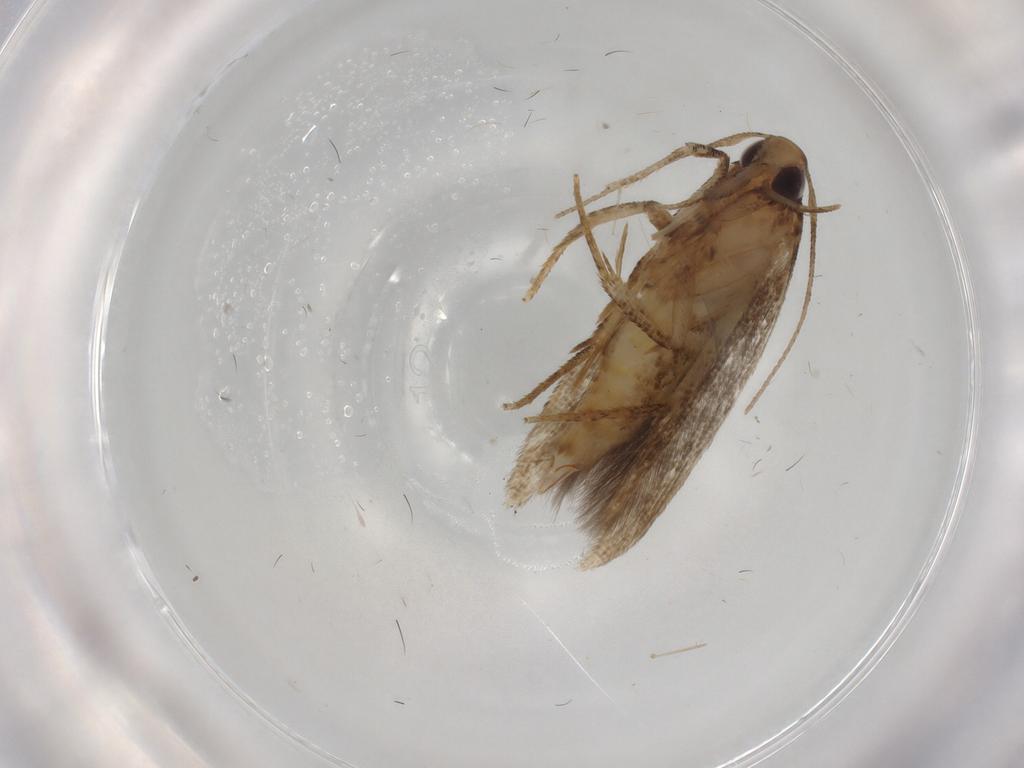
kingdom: Animalia
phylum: Arthropoda
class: Insecta
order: Lepidoptera
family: Depressariidae
